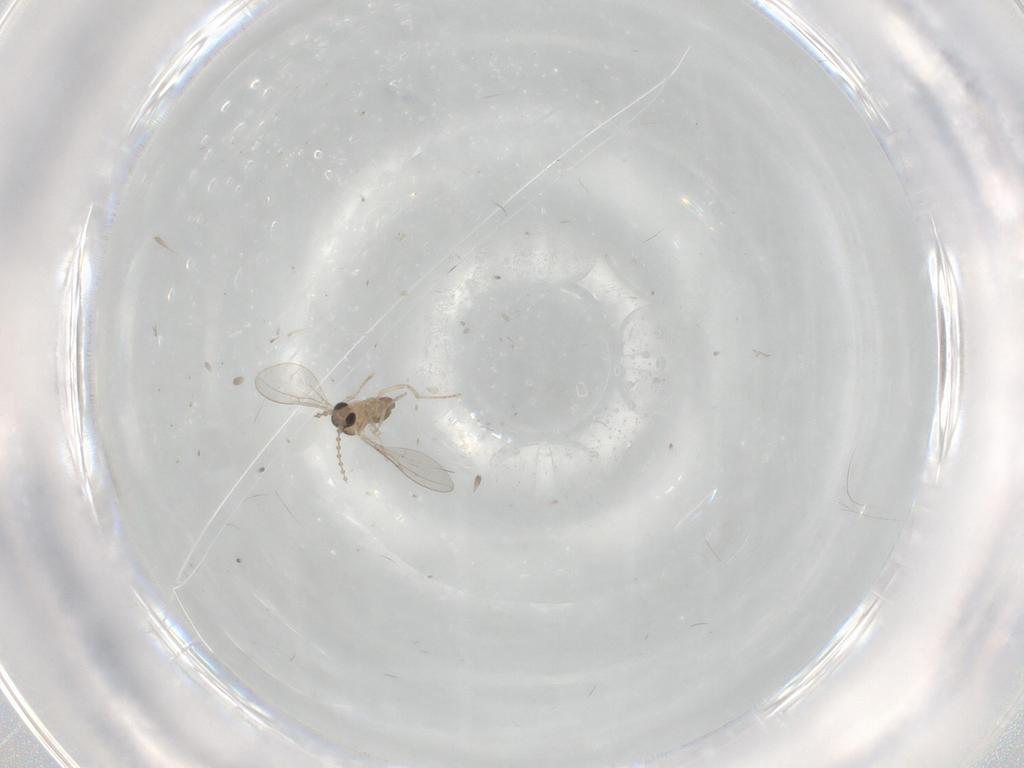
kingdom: Animalia
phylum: Arthropoda
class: Insecta
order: Diptera
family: Cecidomyiidae
